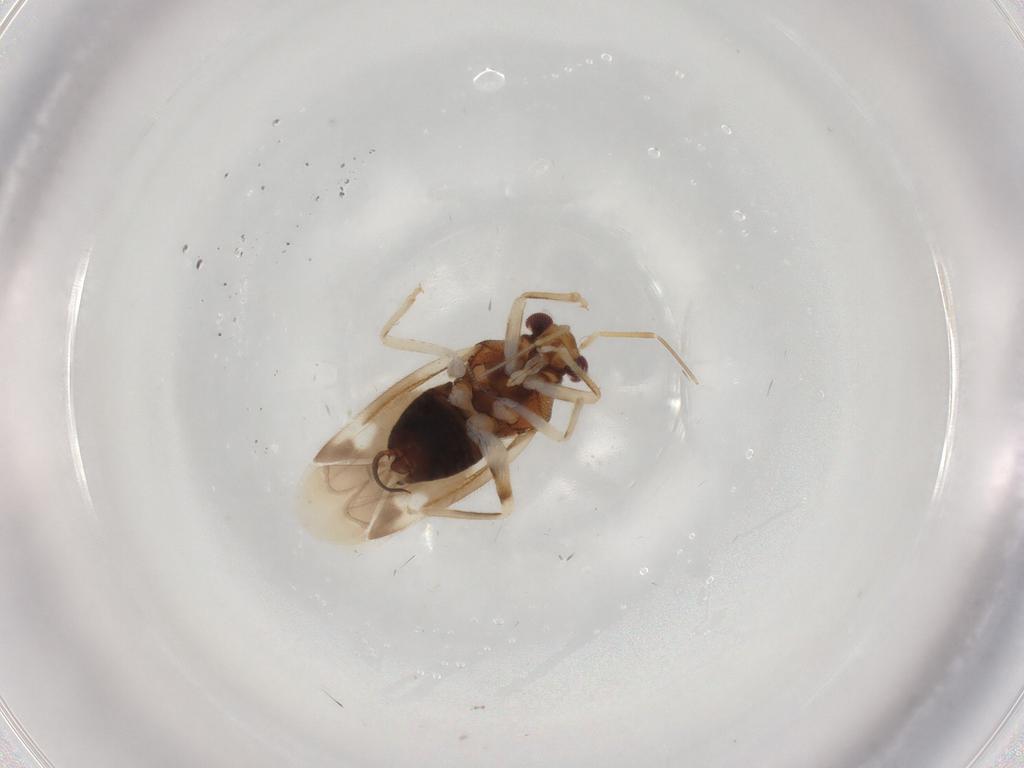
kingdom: Animalia
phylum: Arthropoda
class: Insecta
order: Hemiptera
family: Miridae
